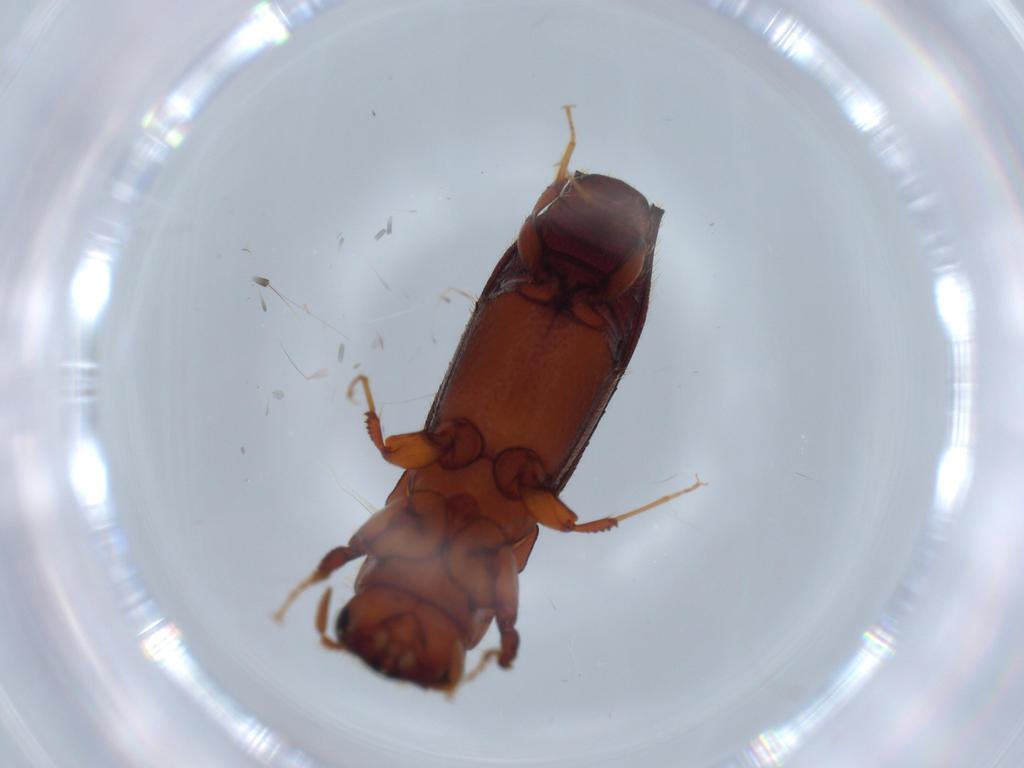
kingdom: Animalia
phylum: Arthropoda
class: Insecta
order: Coleoptera
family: Curculionidae
